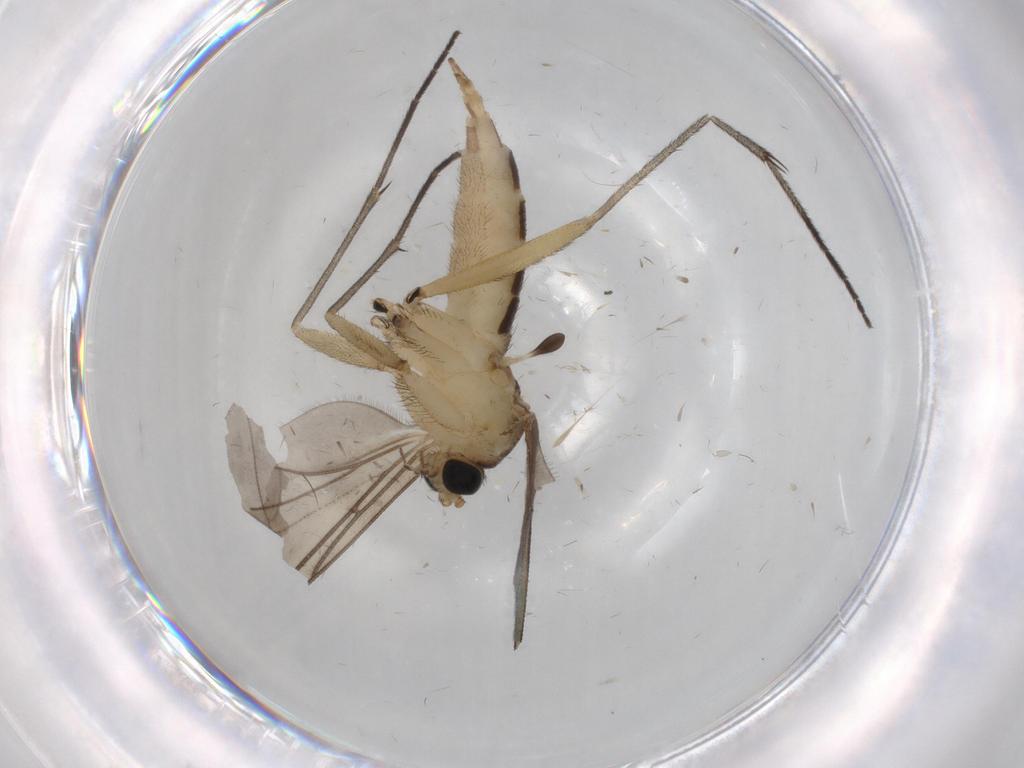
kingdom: Animalia
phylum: Arthropoda
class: Insecta
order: Diptera
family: Sciaridae
